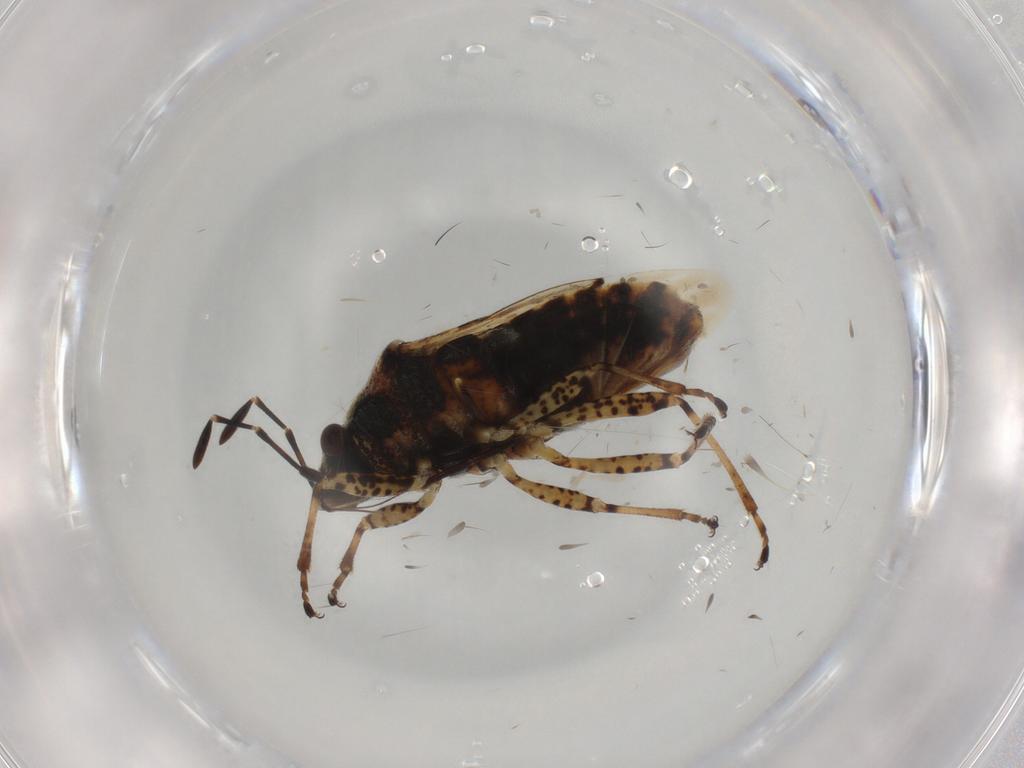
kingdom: Animalia
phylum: Arthropoda
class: Insecta
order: Hemiptera
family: Lygaeidae
